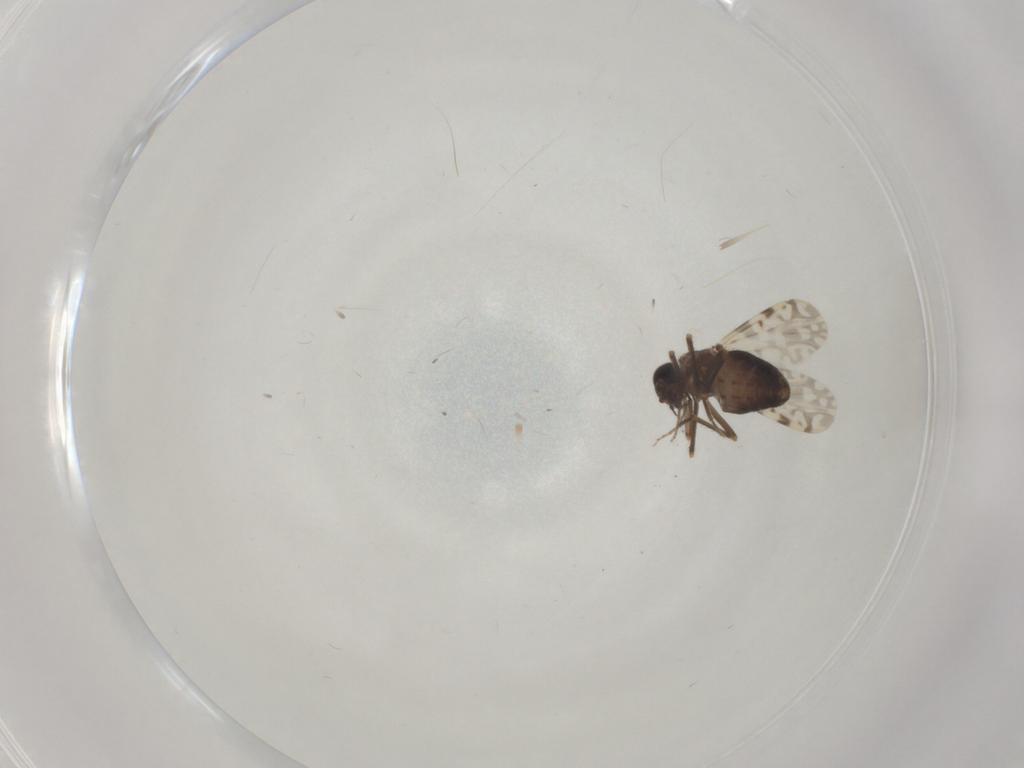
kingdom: Animalia
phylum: Arthropoda
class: Insecta
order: Diptera
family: Ceratopogonidae
